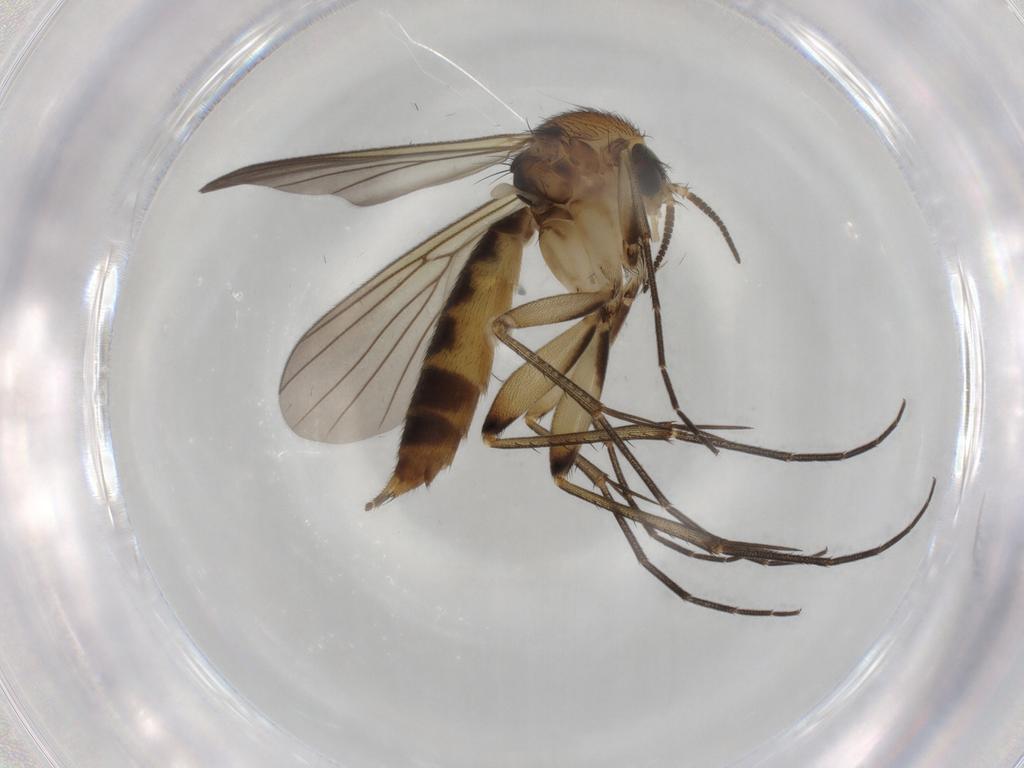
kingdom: Animalia
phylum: Arthropoda
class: Insecta
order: Diptera
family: Mycetophilidae
